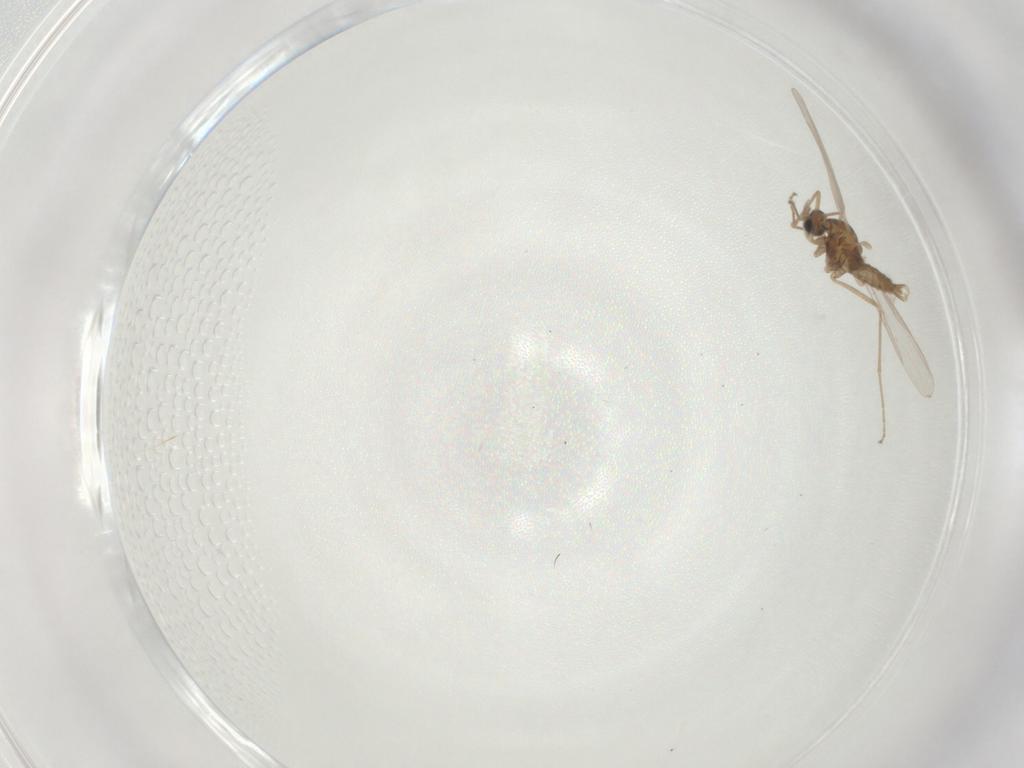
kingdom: Animalia
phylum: Arthropoda
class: Insecta
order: Diptera
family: Cecidomyiidae
